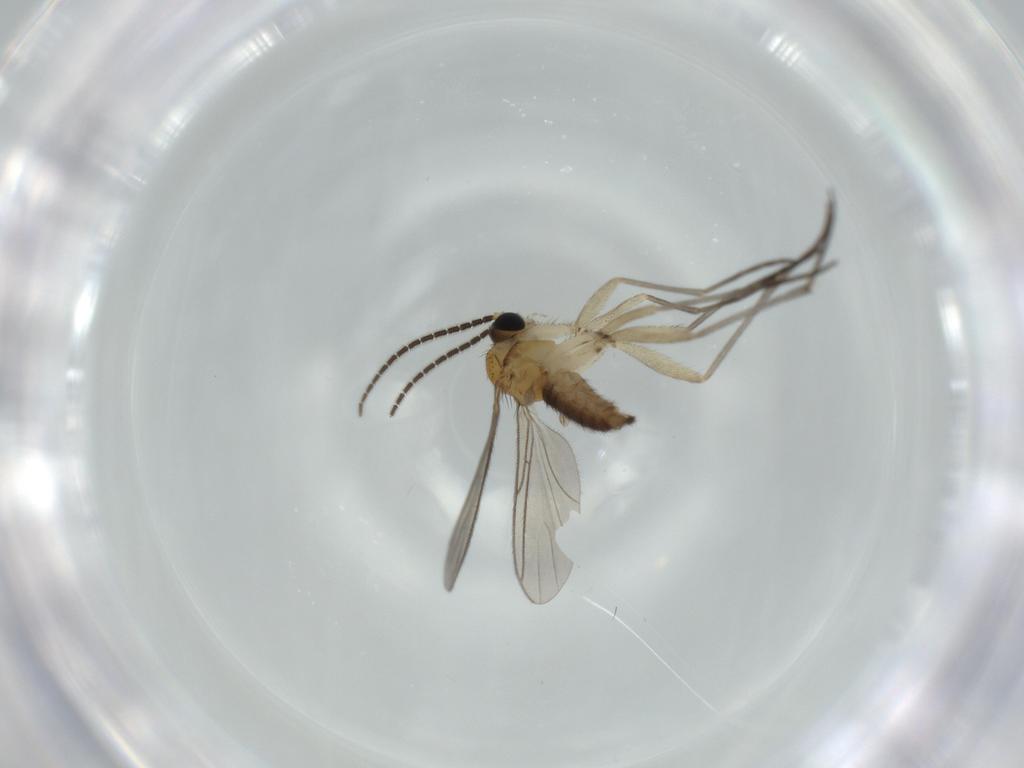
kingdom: Animalia
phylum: Arthropoda
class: Insecta
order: Diptera
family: Sciaridae
